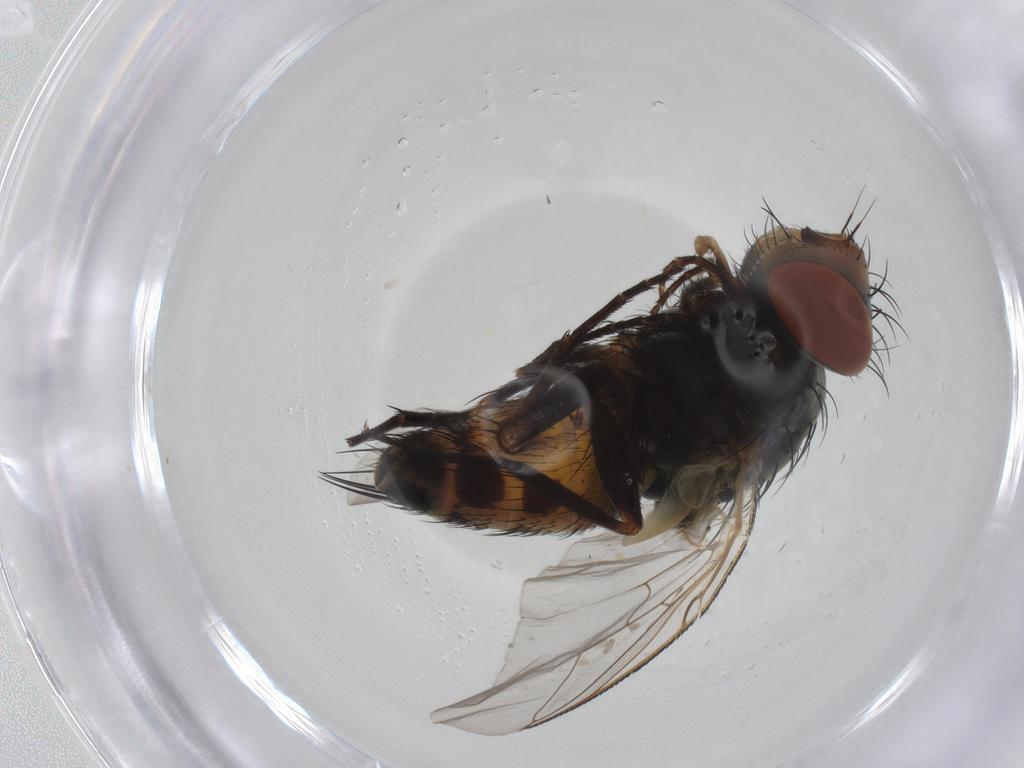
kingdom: Animalia
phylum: Arthropoda
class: Insecta
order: Diptera
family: Sarcophagidae
